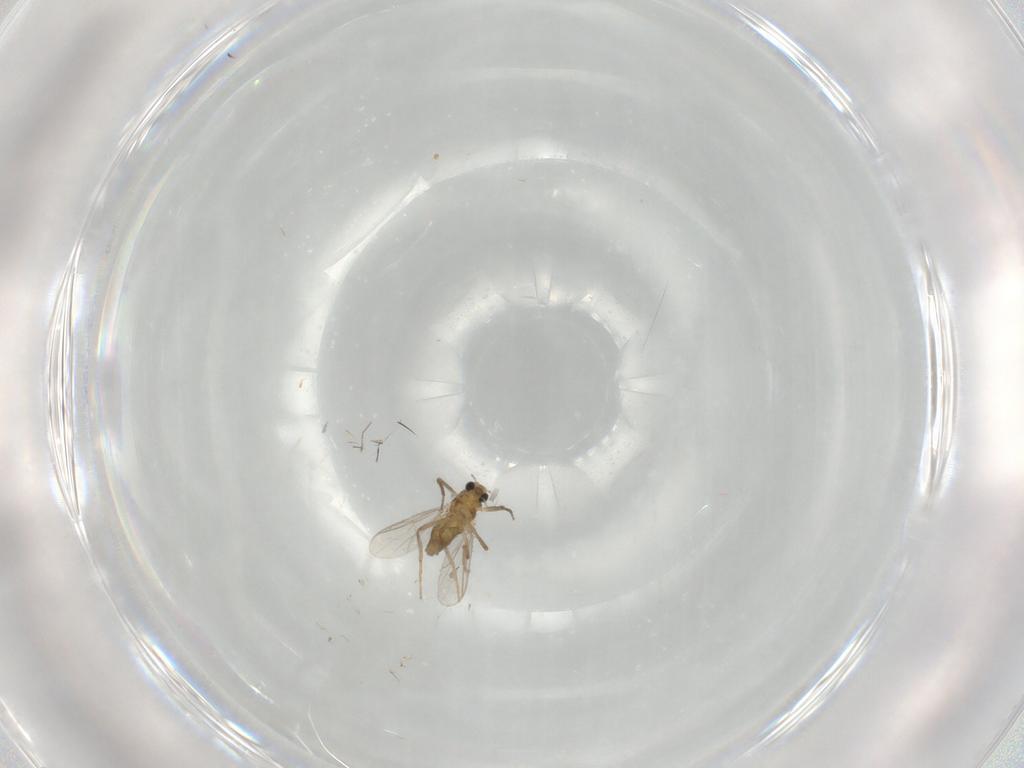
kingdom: Animalia
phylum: Arthropoda
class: Insecta
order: Diptera
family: Chironomidae
